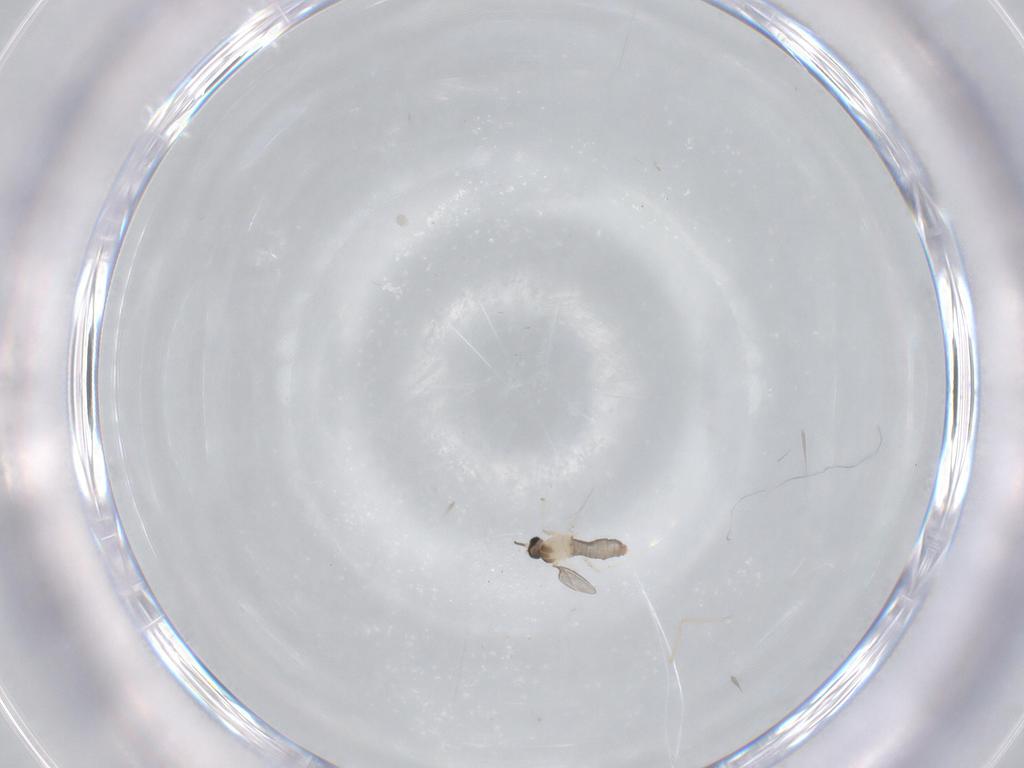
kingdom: Animalia
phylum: Arthropoda
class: Insecta
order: Diptera
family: Cecidomyiidae
